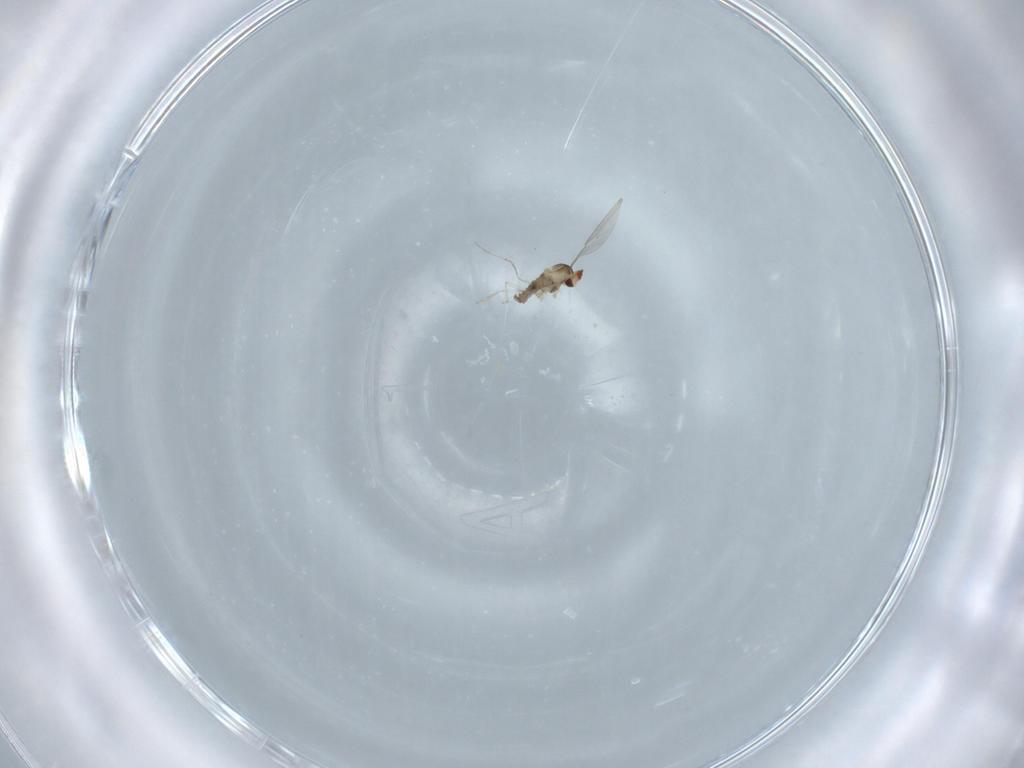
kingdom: Animalia
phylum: Arthropoda
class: Insecta
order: Diptera
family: Cecidomyiidae
